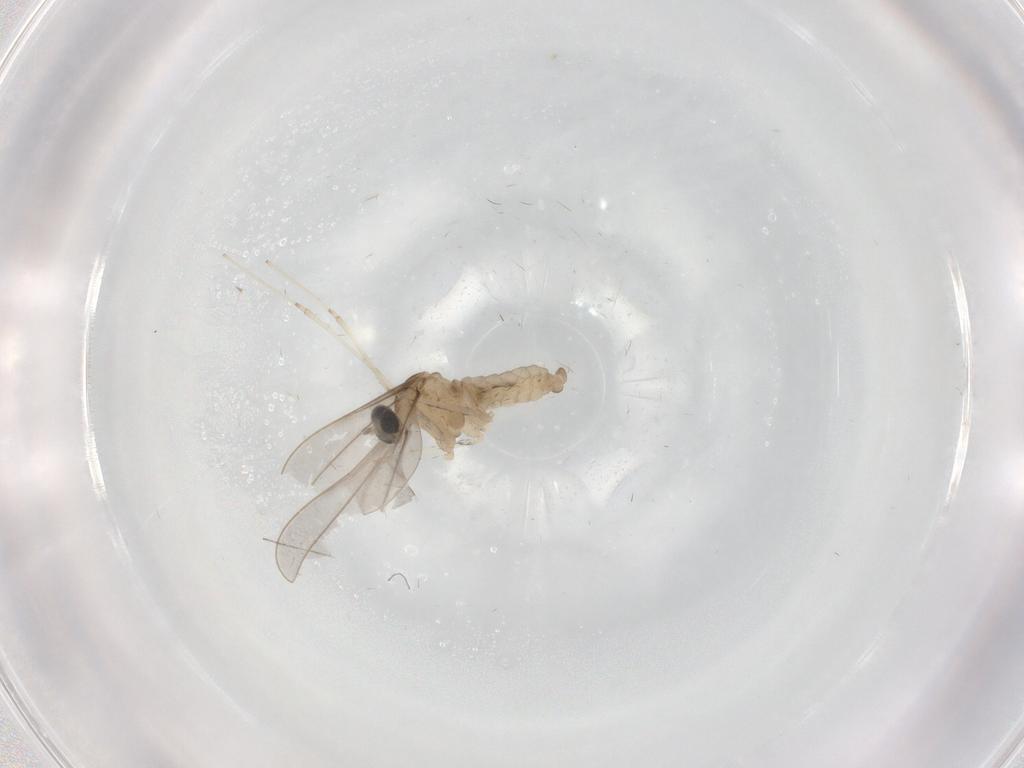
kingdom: Animalia
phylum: Arthropoda
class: Insecta
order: Diptera
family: Cecidomyiidae
